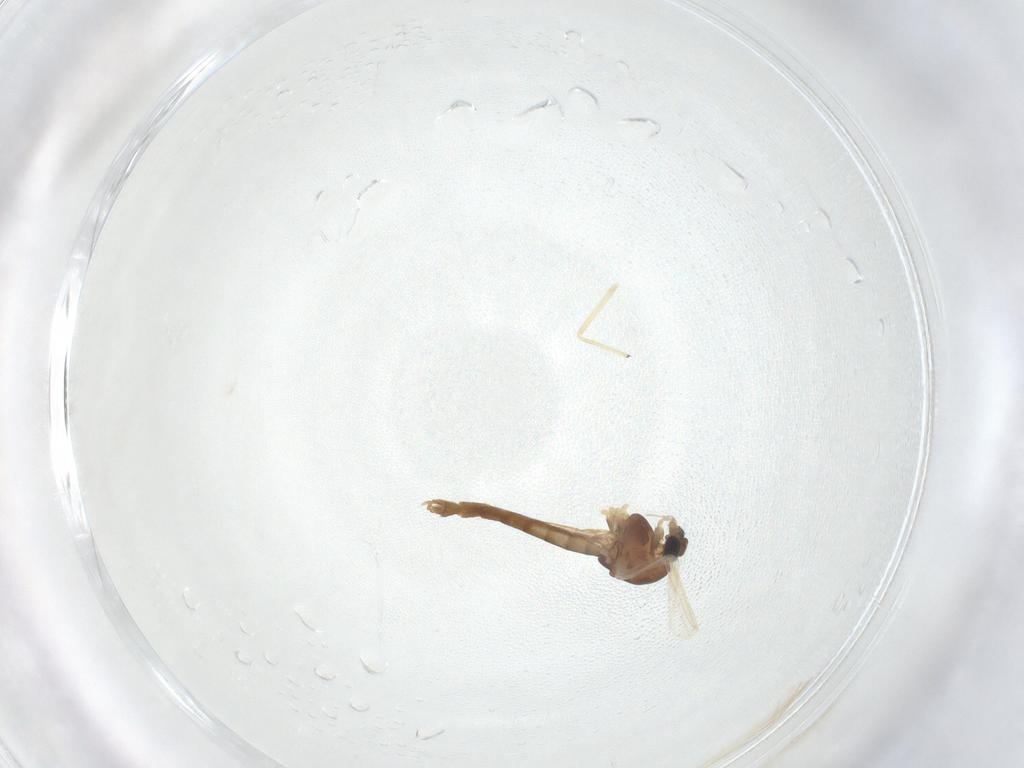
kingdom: Animalia
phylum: Arthropoda
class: Insecta
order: Diptera
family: Chironomidae
